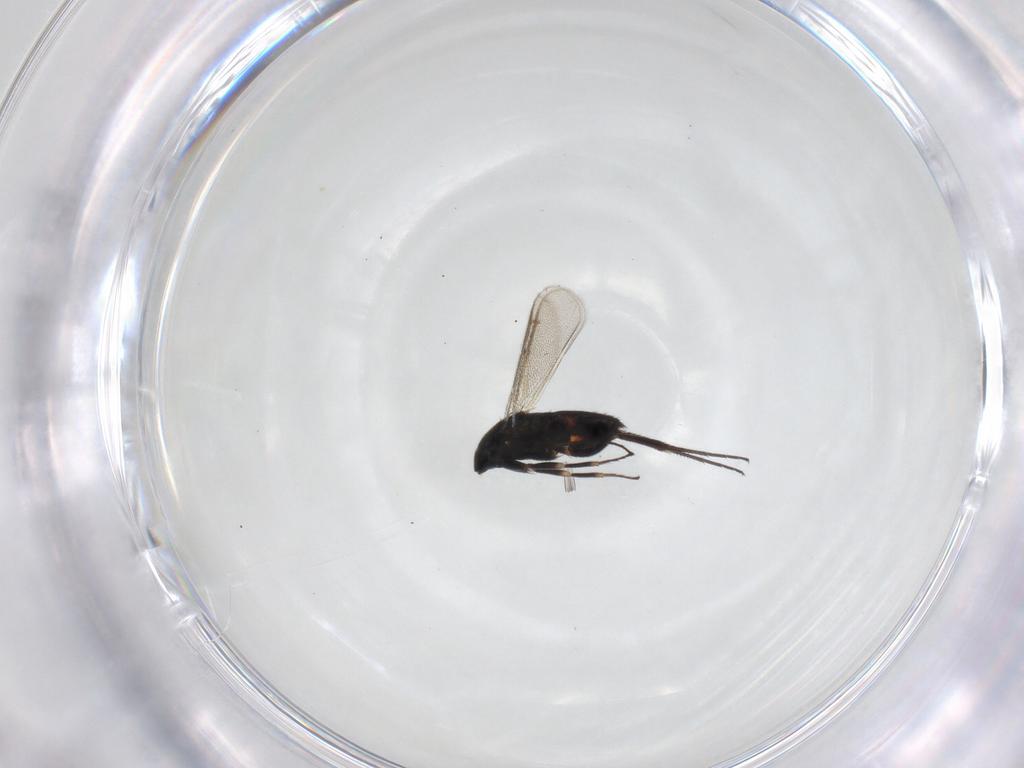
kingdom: Animalia
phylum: Arthropoda
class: Insecta
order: Hymenoptera
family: Eulophidae
